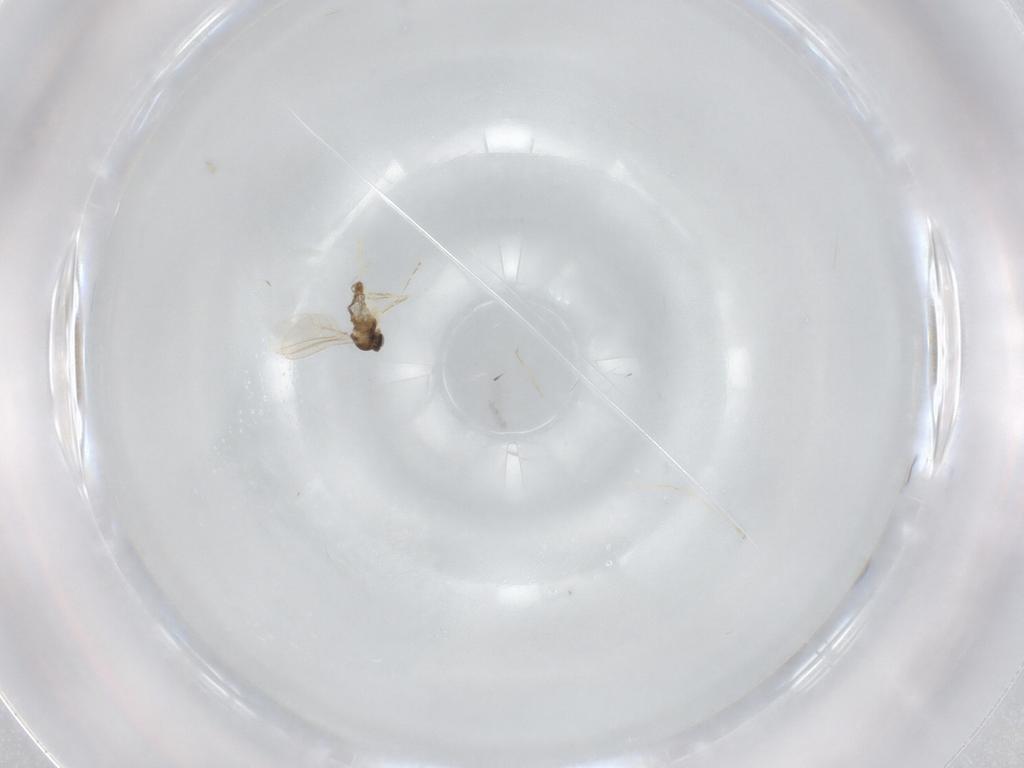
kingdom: Animalia
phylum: Arthropoda
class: Insecta
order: Diptera
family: Cecidomyiidae
